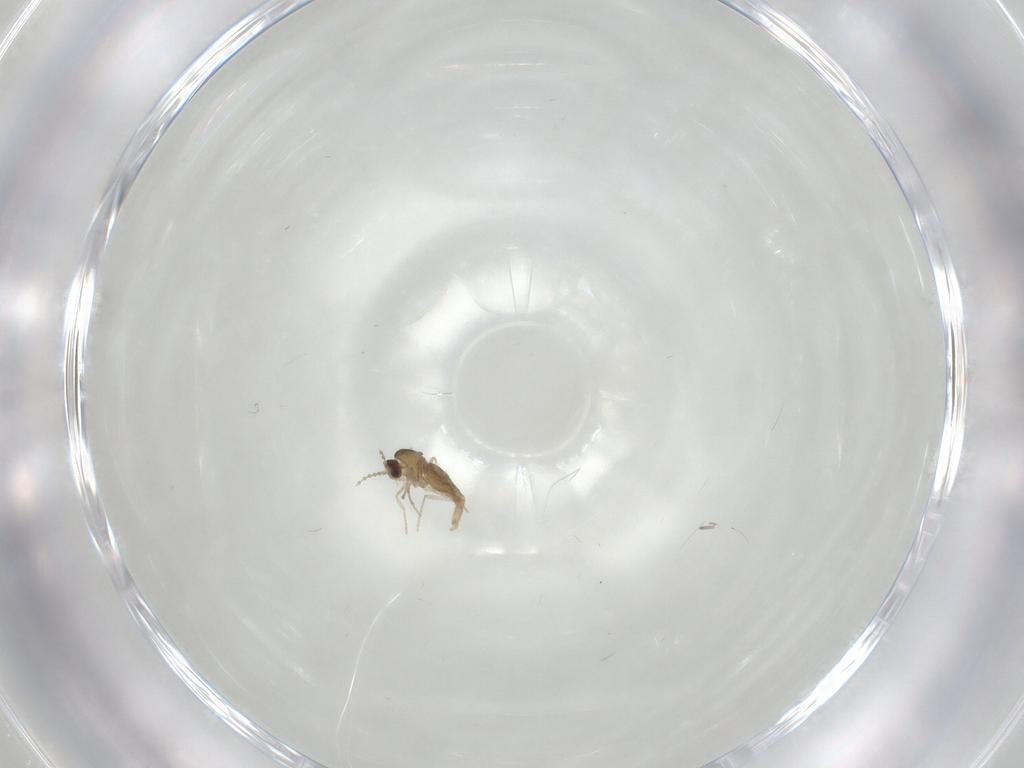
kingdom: Animalia
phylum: Arthropoda
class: Insecta
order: Diptera
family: Cecidomyiidae
